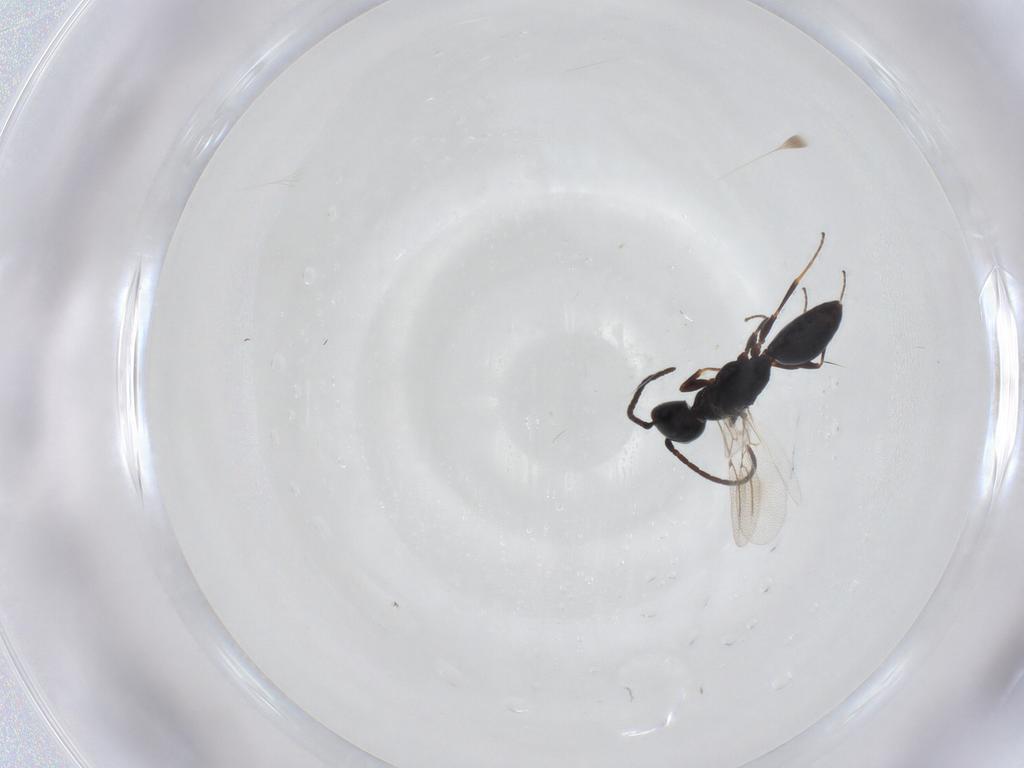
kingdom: Animalia
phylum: Arthropoda
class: Insecta
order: Hymenoptera
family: Bethylidae
